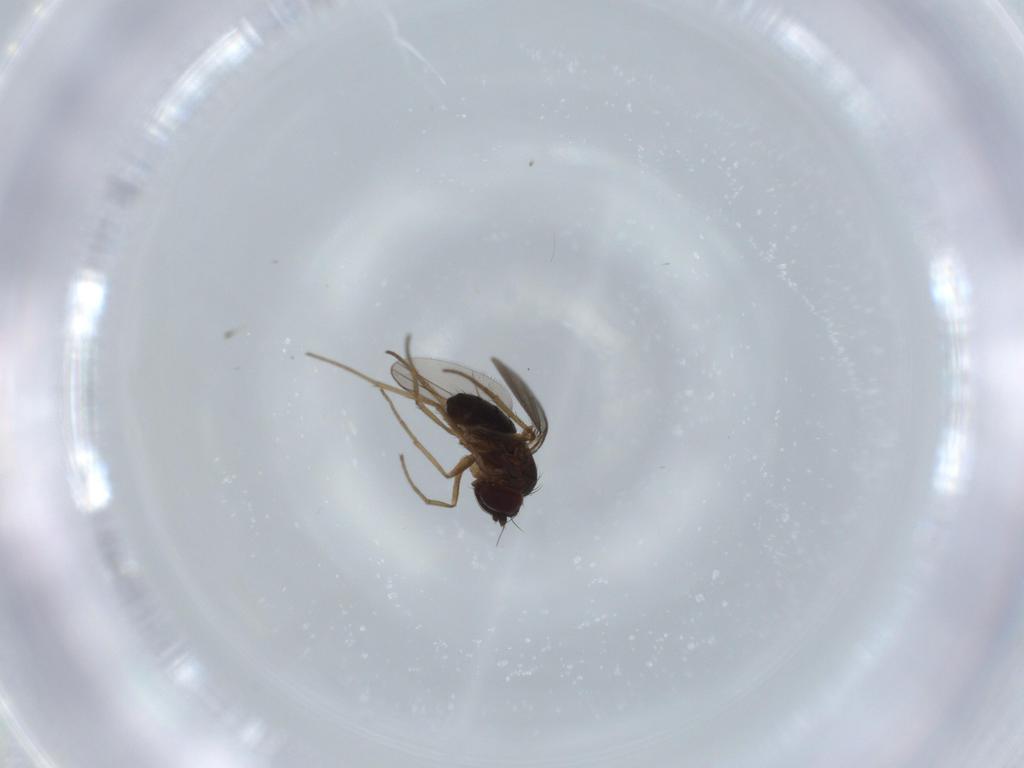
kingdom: Animalia
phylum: Arthropoda
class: Insecta
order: Diptera
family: Dolichopodidae
